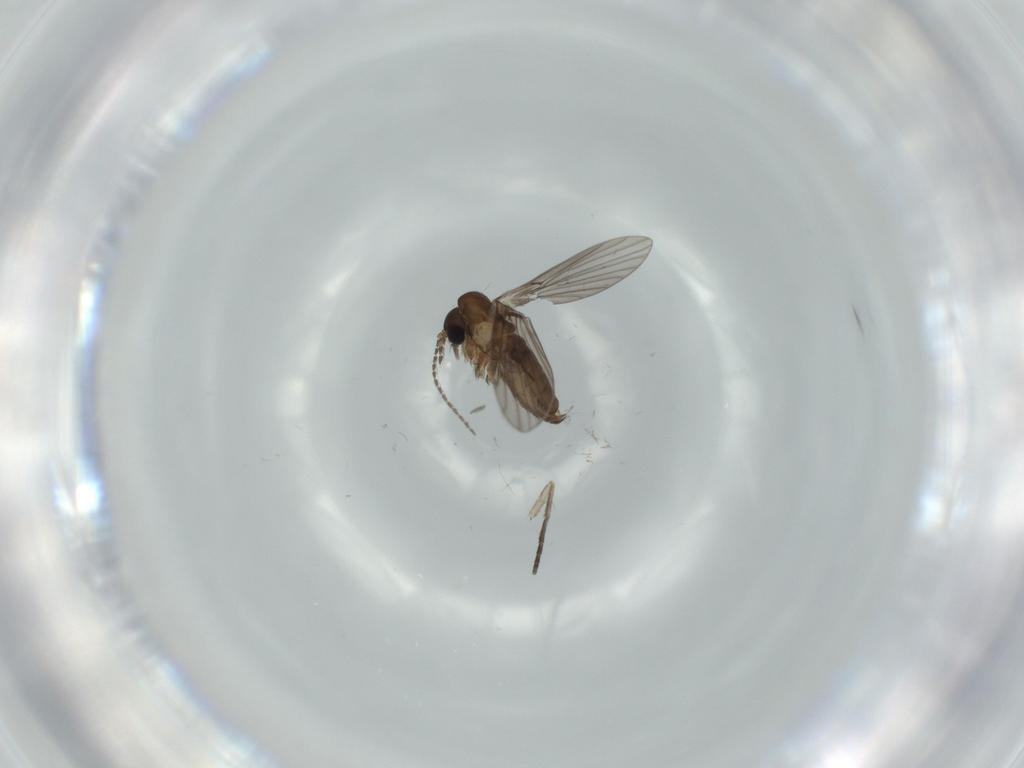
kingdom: Animalia
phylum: Arthropoda
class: Insecta
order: Diptera
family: Psychodidae
